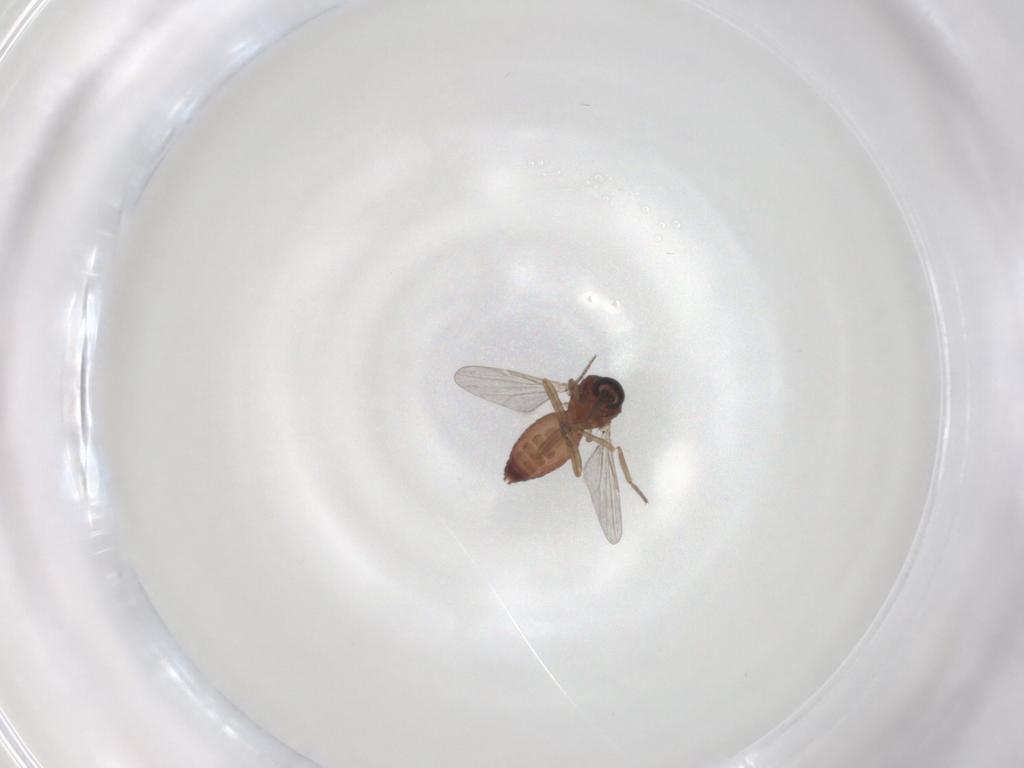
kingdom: Animalia
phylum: Arthropoda
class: Insecta
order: Diptera
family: Ceratopogonidae
